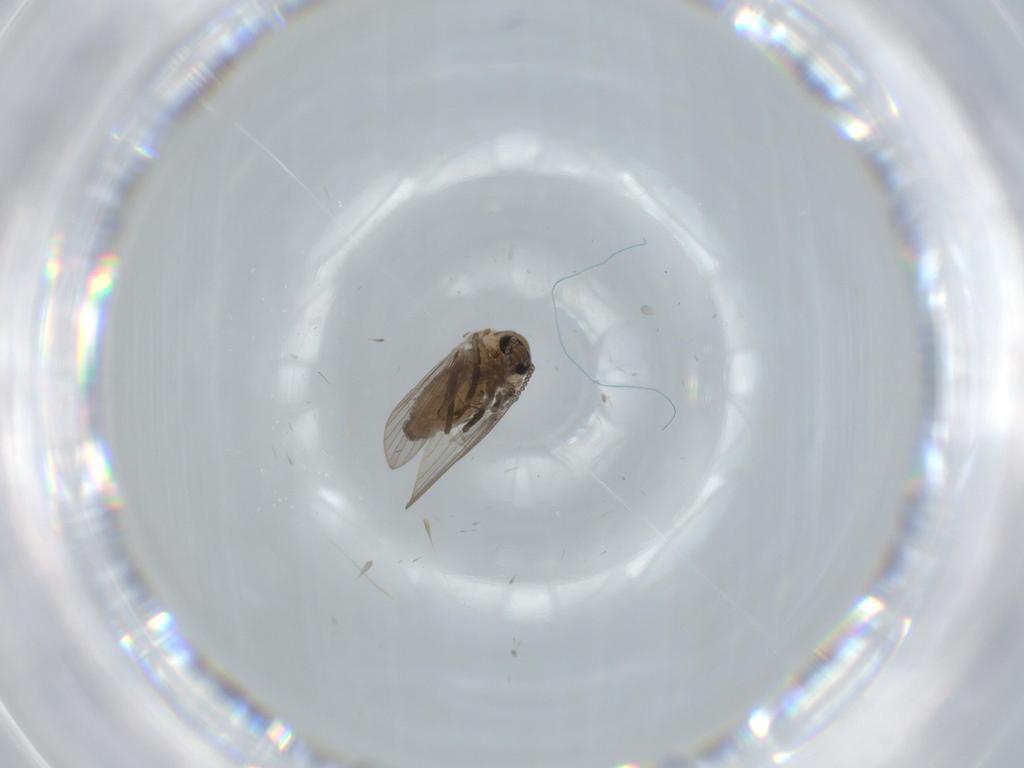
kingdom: Animalia
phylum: Arthropoda
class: Insecta
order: Diptera
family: Psychodidae
